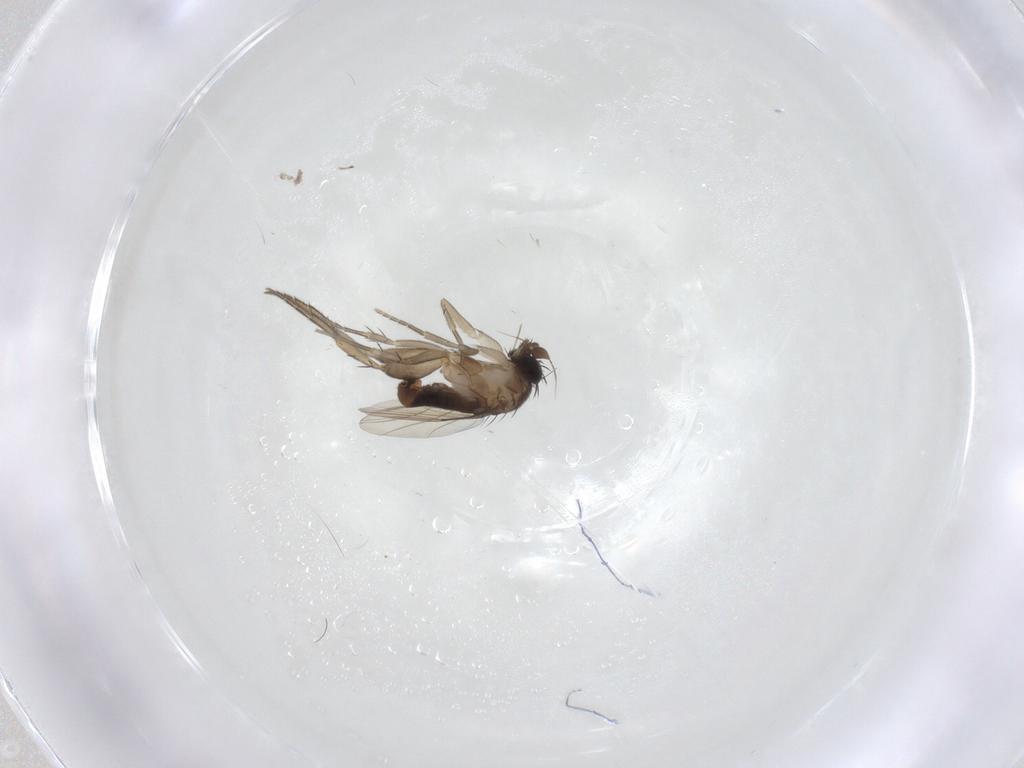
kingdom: Animalia
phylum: Arthropoda
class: Insecta
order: Diptera
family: Phoridae
